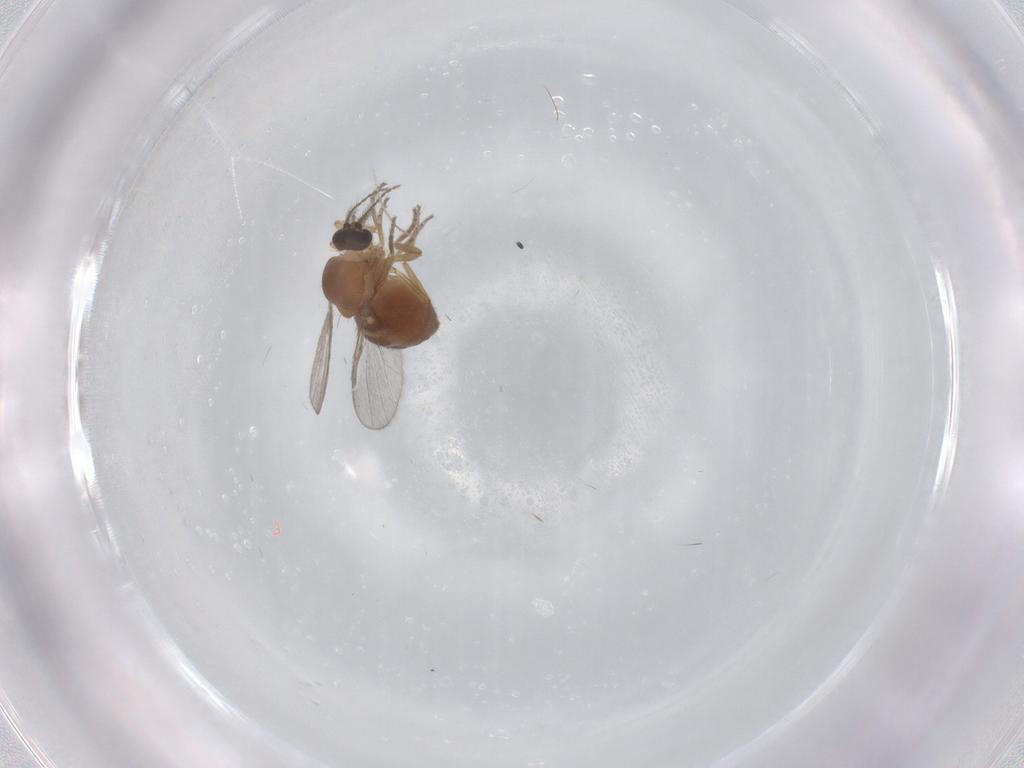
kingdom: Animalia
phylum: Arthropoda
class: Insecta
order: Diptera
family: Ceratopogonidae
